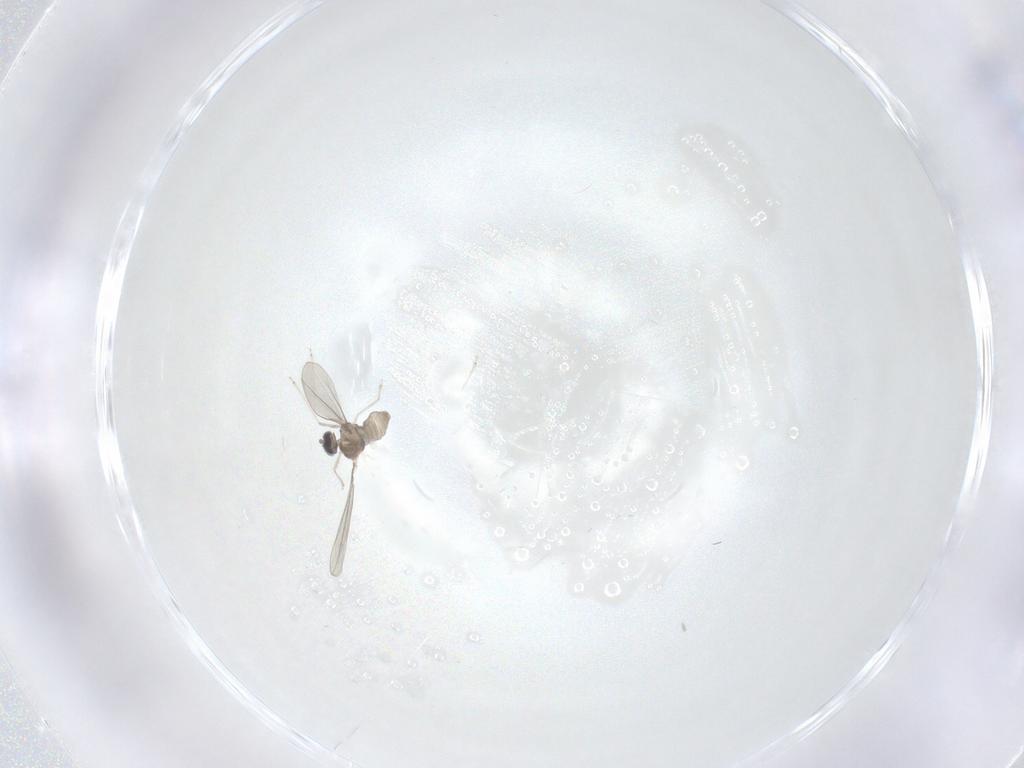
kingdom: Animalia
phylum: Arthropoda
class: Insecta
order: Diptera
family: Cecidomyiidae
